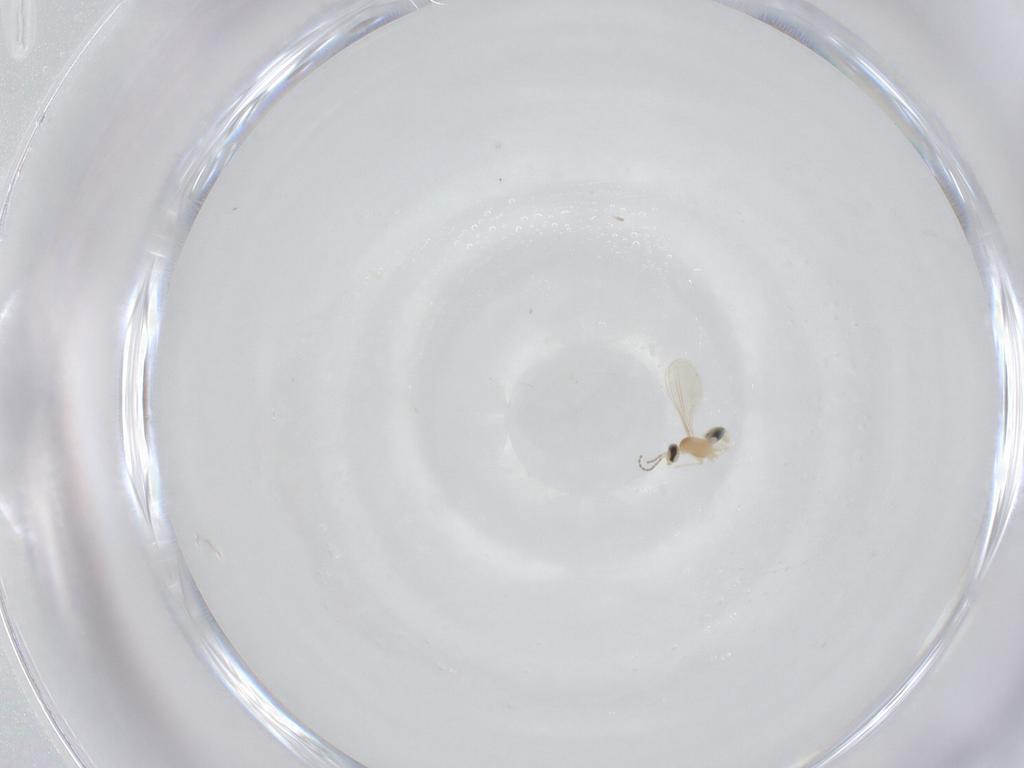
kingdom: Animalia
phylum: Arthropoda
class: Insecta
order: Diptera
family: Cecidomyiidae
